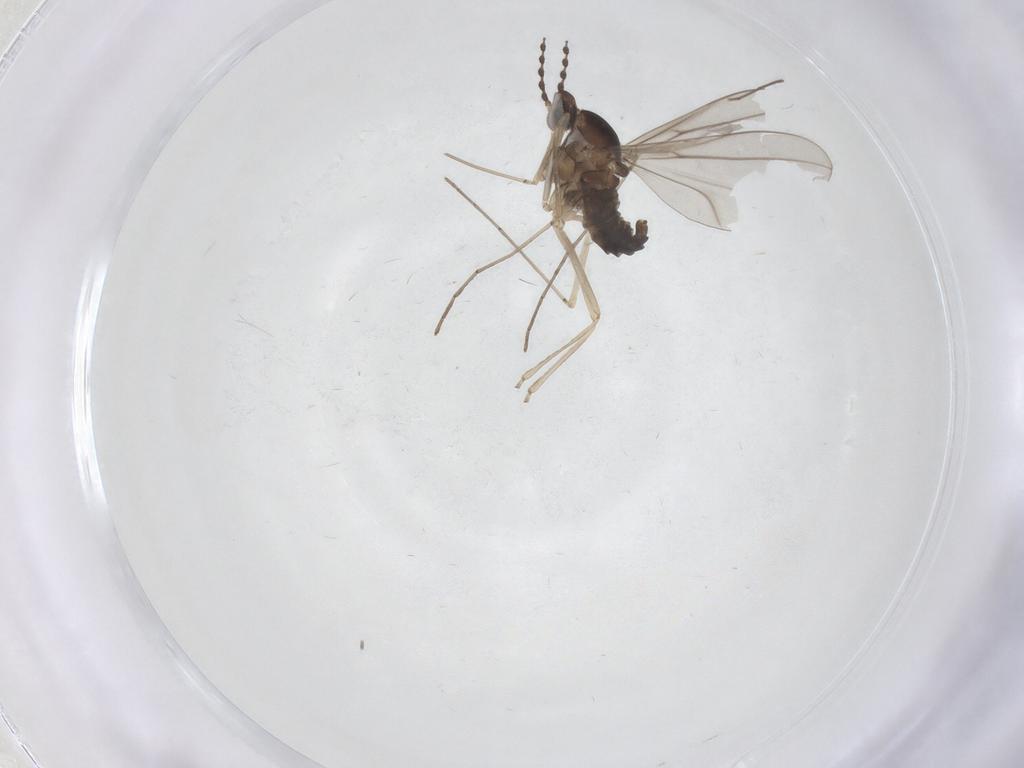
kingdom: Animalia
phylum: Arthropoda
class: Insecta
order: Diptera
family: Cecidomyiidae
